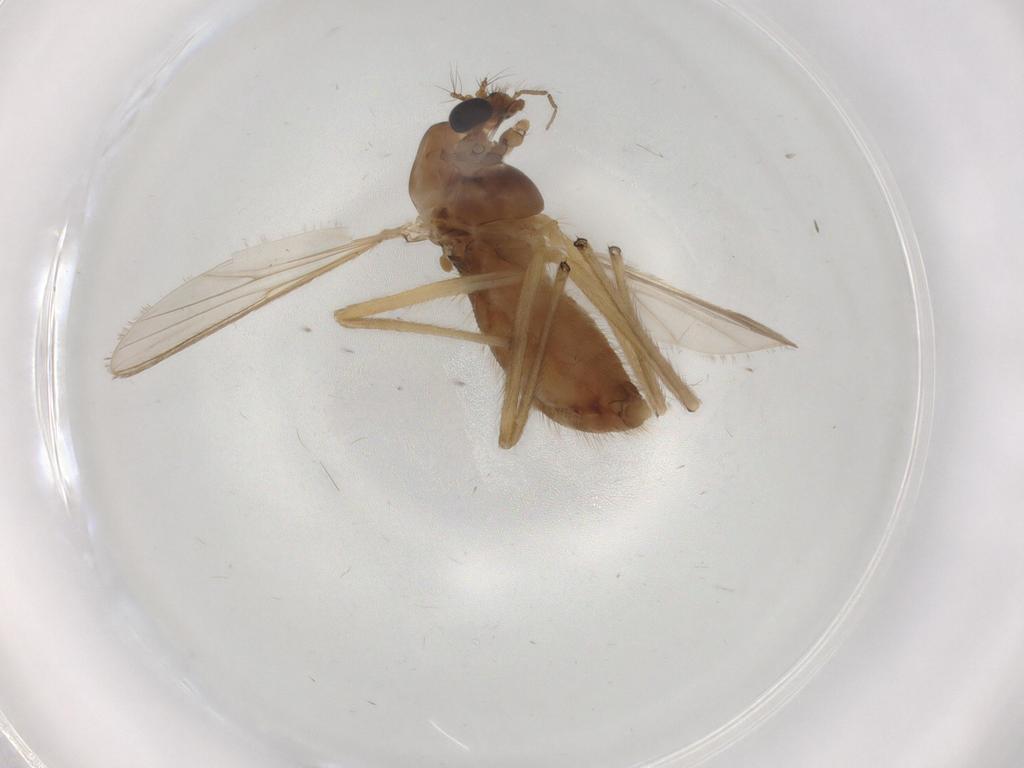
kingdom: Animalia
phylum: Arthropoda
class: Insecta
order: Diptera
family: Chironomidae
